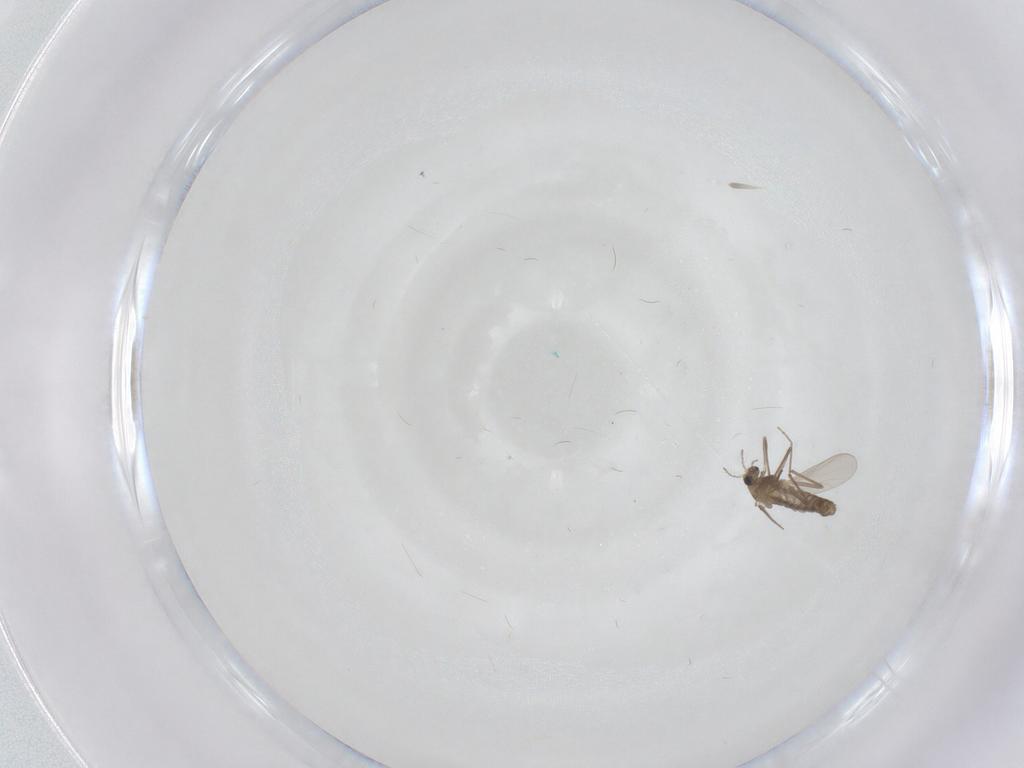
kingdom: Animalia
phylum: Arthropoda
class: Insecta
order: Diptera
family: Chironomidae
